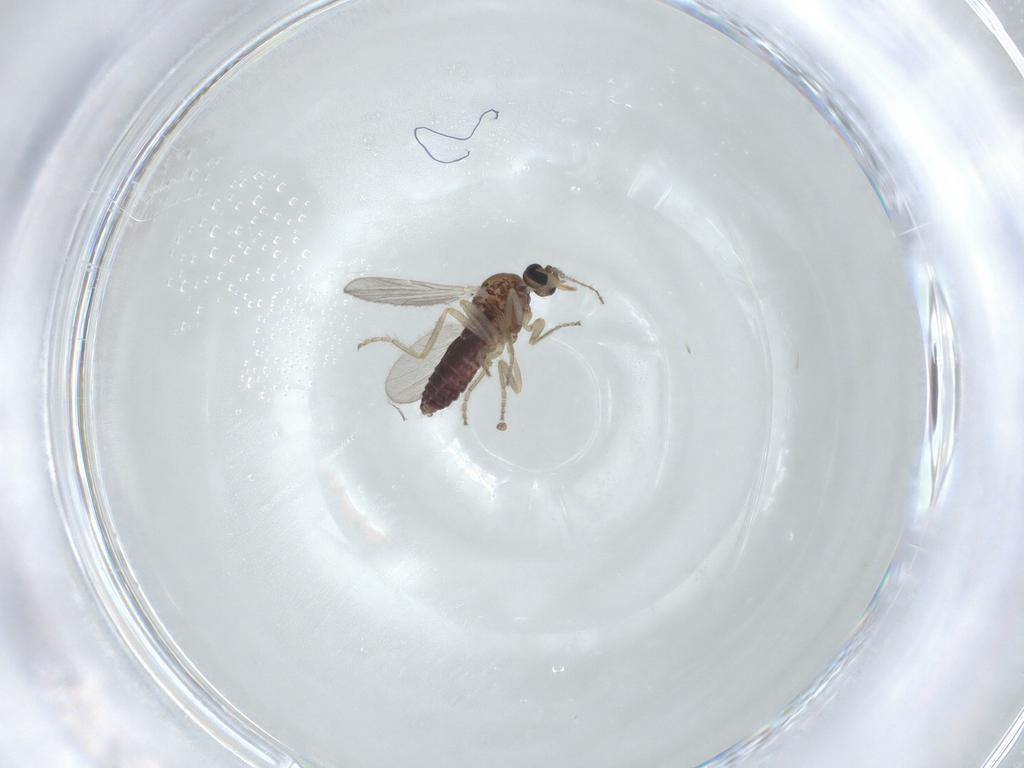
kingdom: Animalia
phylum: Arthropoda
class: Insecta
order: Diptera
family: Ceratopogonidae
